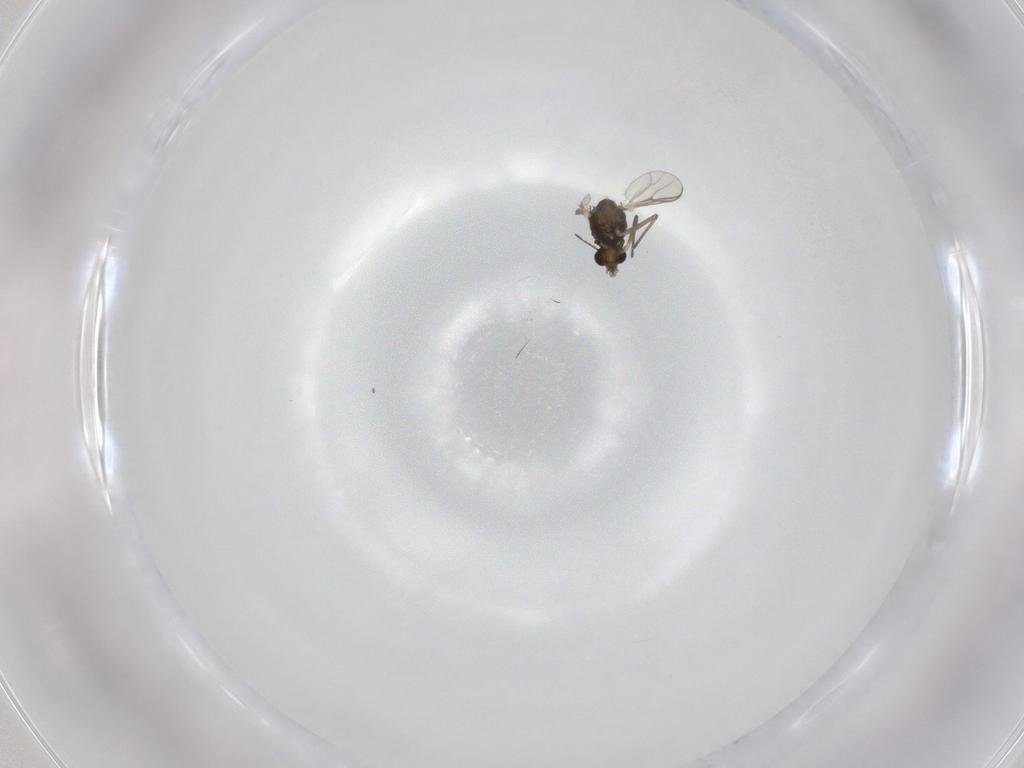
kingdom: Animalia
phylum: Arthropoda
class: Insecta
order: Diptera
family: Chironomidae
